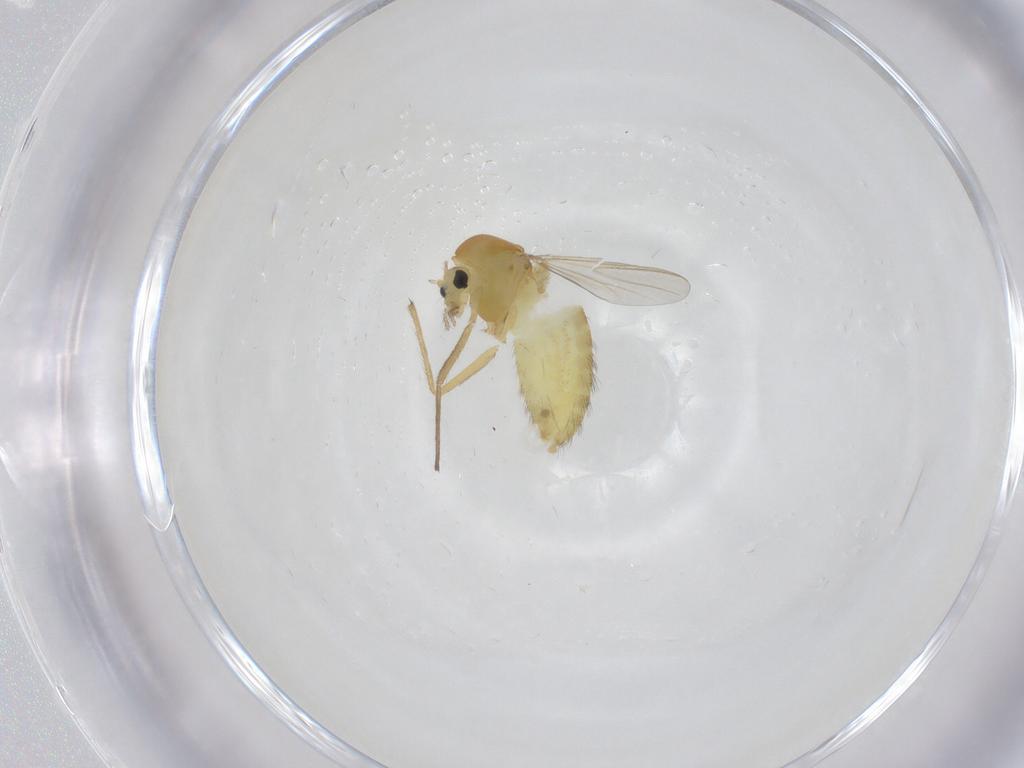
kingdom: Animalia
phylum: Arthropoda
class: Insecta
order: Diptera
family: Chironomidae
